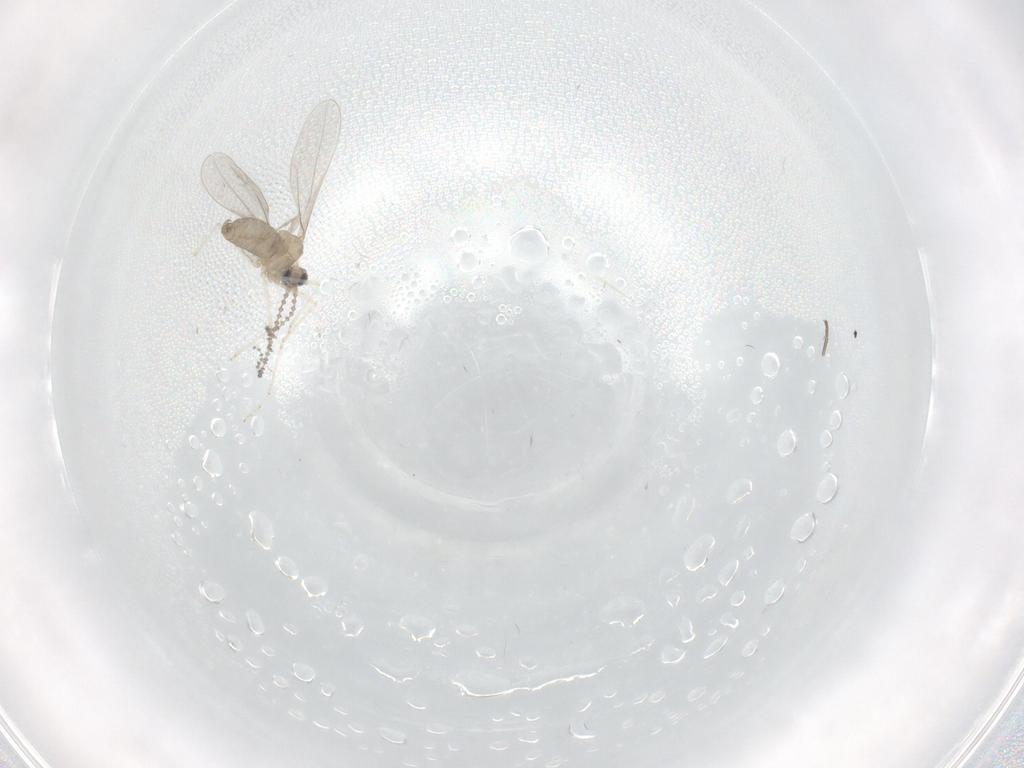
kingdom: Animalia
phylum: Arthropoda
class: Insecta
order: Diptera
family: Cecidomyiidae
